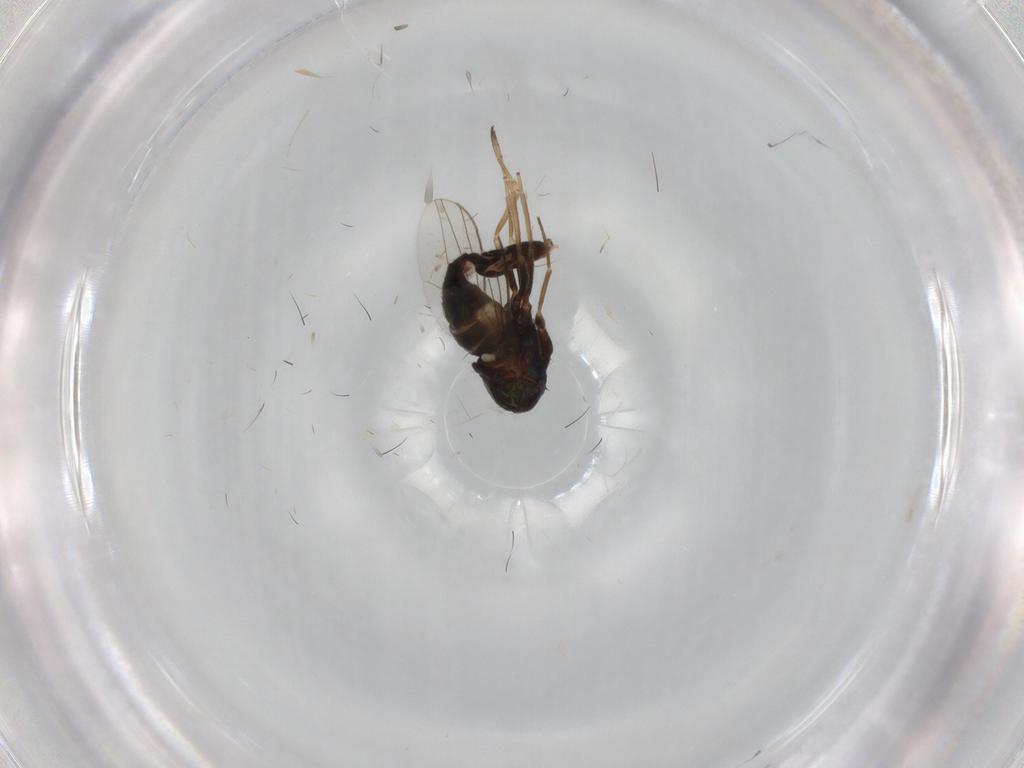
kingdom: Animalia
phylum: Arthropoda
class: Insecta
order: Diptera
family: Dolichopodidae
